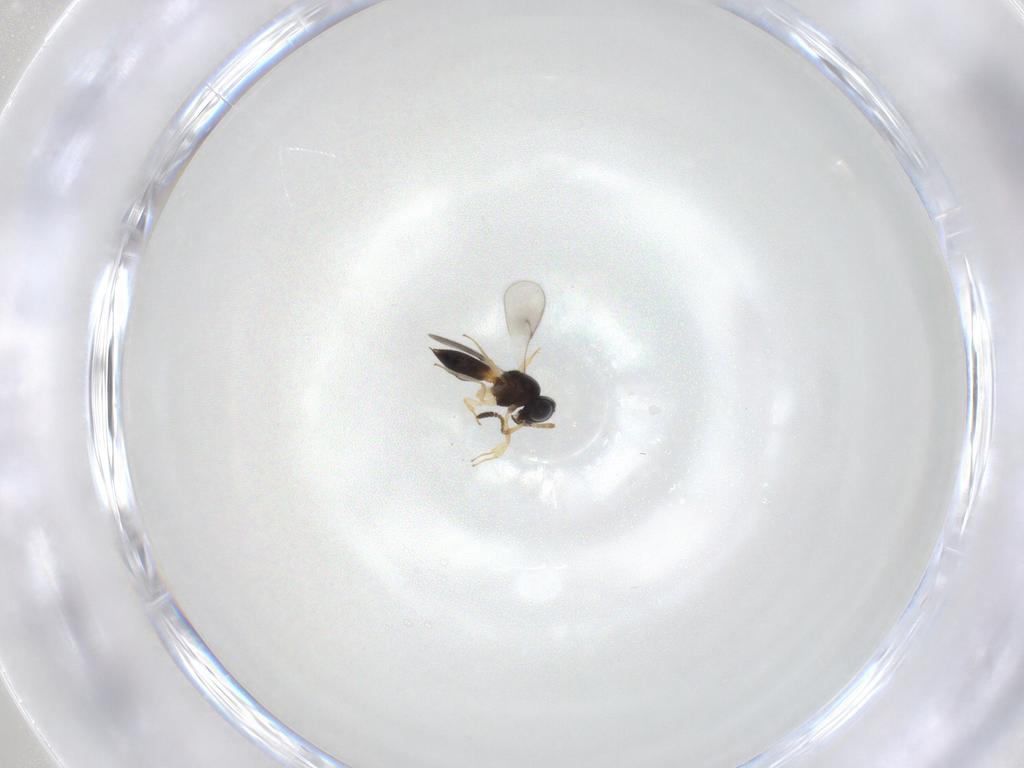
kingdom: Animalia
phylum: Arthropoda
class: Insecta
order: Hymenoptera
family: Scelionidae
